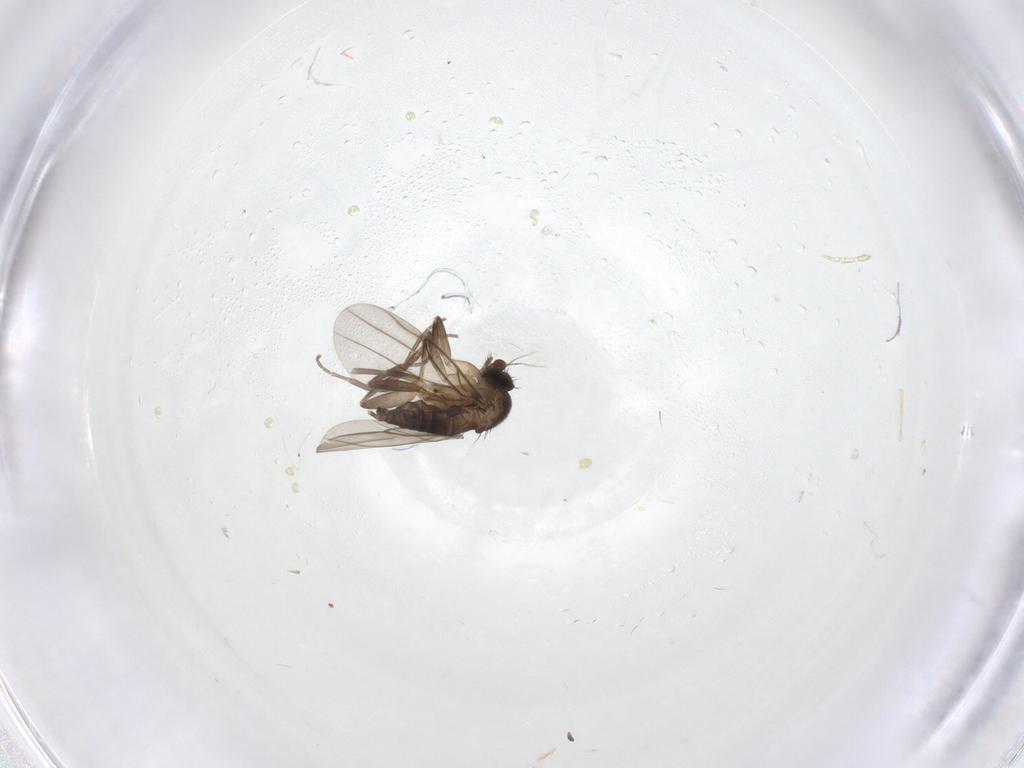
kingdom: Animalia
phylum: Arthropoda
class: Insecta
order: Diptera
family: Phoridae
